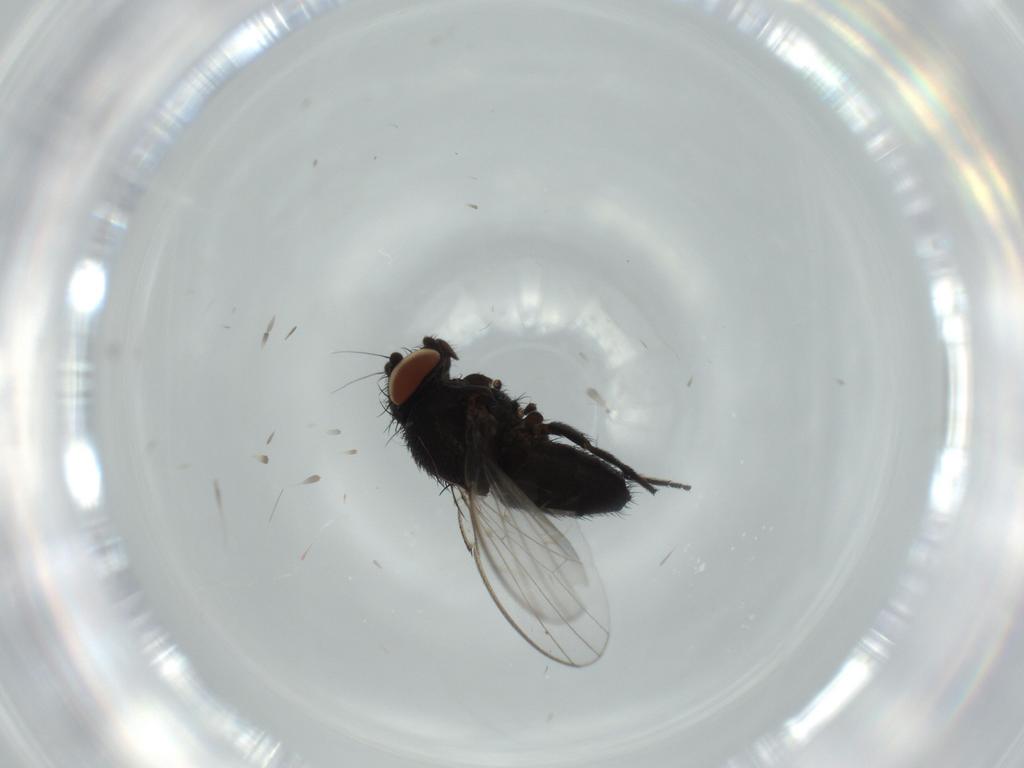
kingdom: Animalia
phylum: Arthropoda
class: Insecta
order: Diptera
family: Milichiidae
